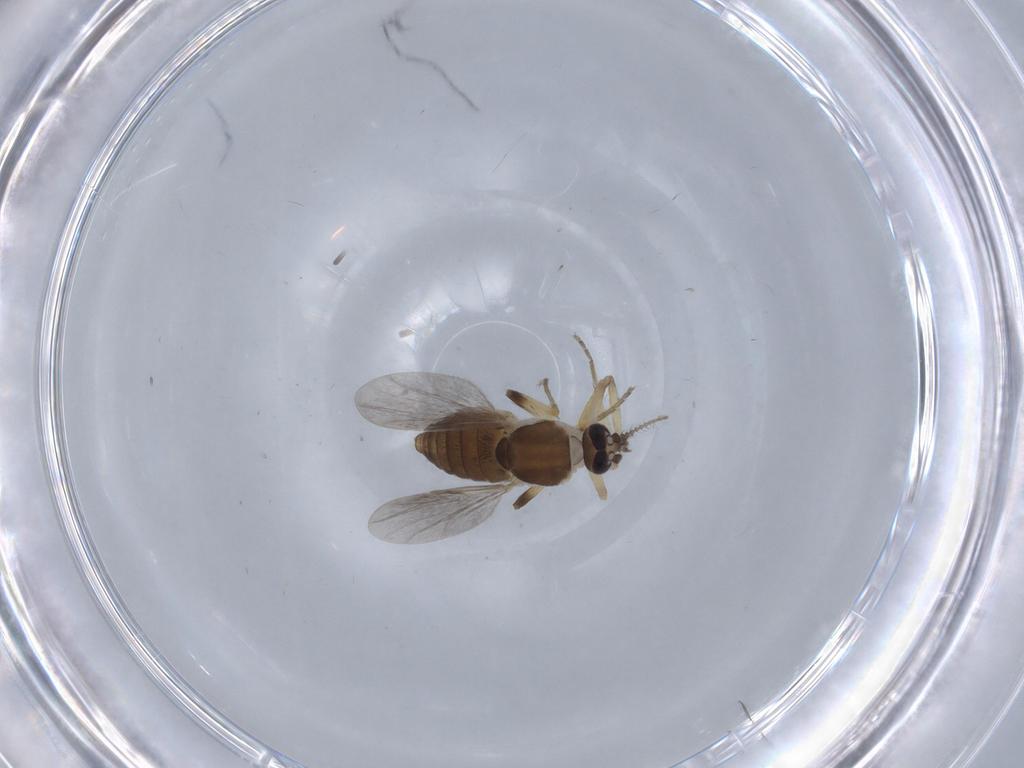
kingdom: Animalia
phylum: Arthropoda
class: Insecta
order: Diptera
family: Ceratopogonidae
